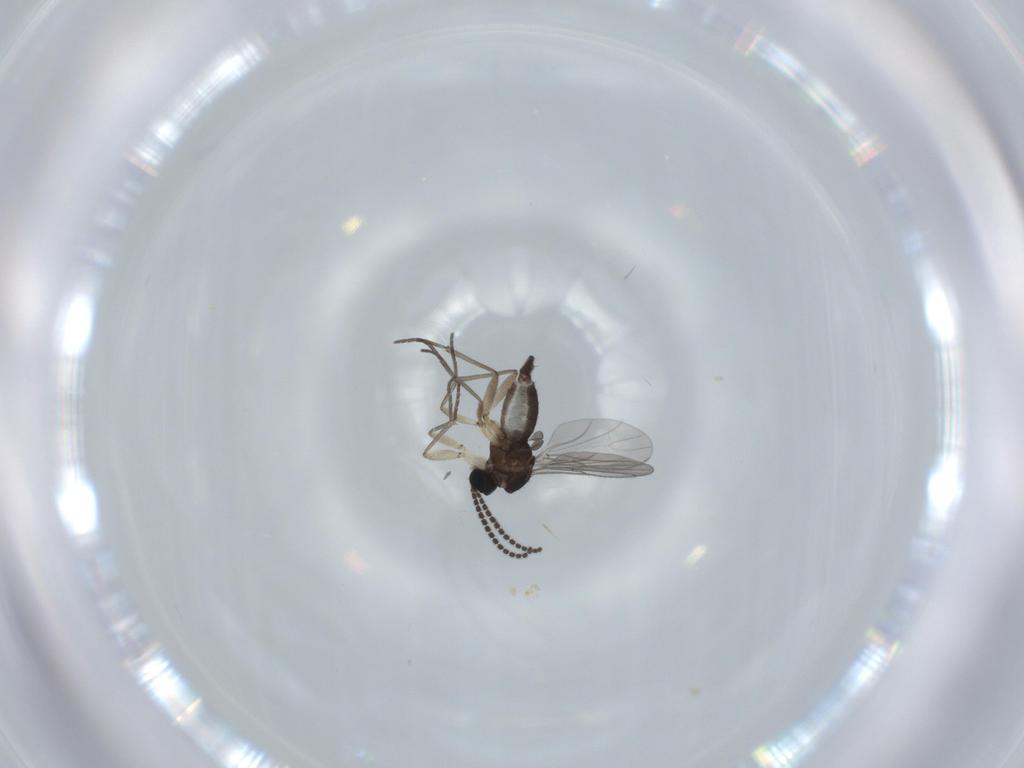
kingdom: Animalia
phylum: Arthropoda
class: Insecta
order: Diptera
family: Sciaridae
